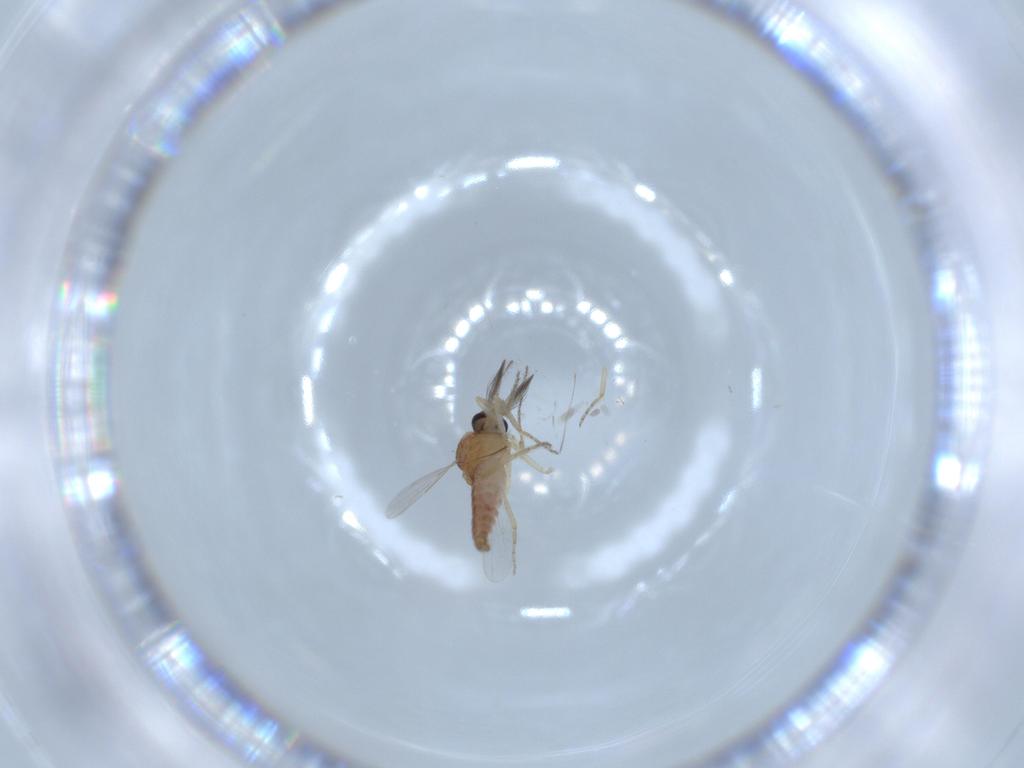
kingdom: Animalia
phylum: Arthropoda
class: Insecta
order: Diptera
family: Ceratopogonidae
